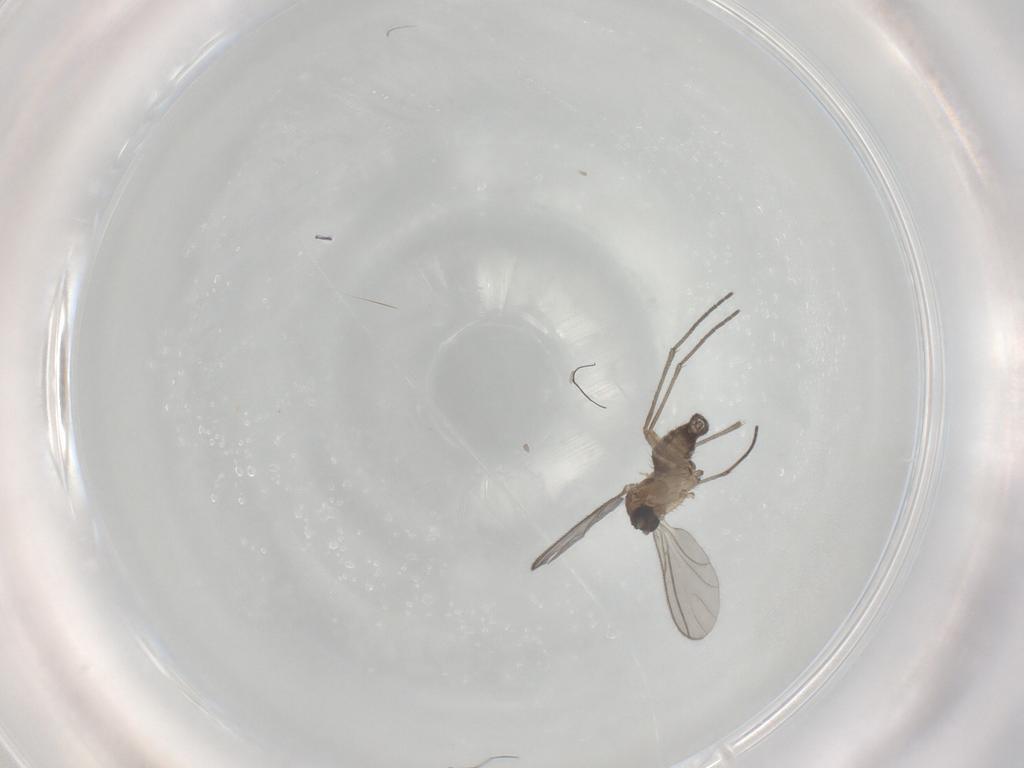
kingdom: Animalia
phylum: Arthropoda
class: Insecta
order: Diptera
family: Sciaridae
